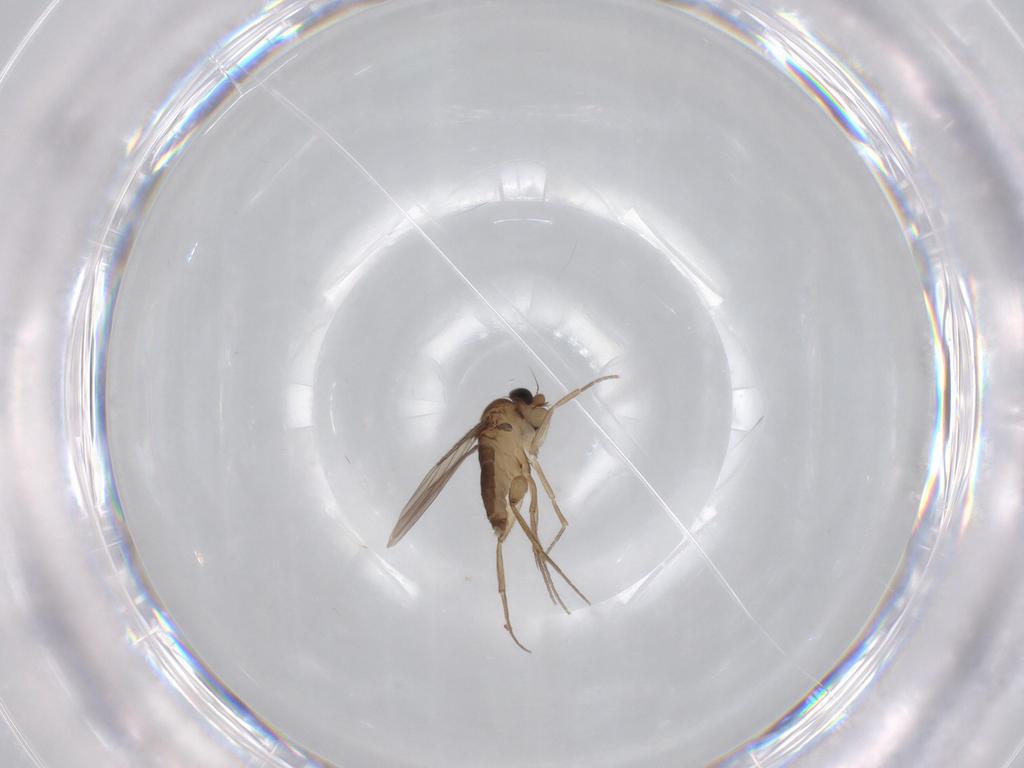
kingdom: Animalia
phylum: Arthropoda
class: Insecta
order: Diptera
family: Phoridae
